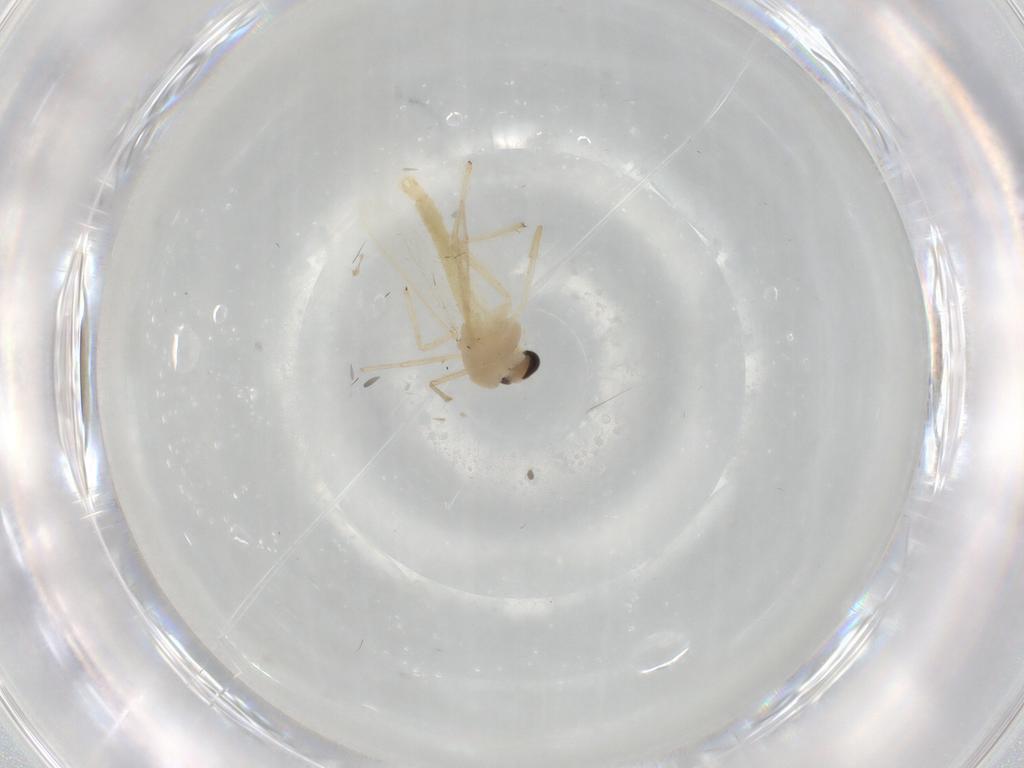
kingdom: Animalia
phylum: Arthropoda
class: Insecta
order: Diptera
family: Chironomidae
